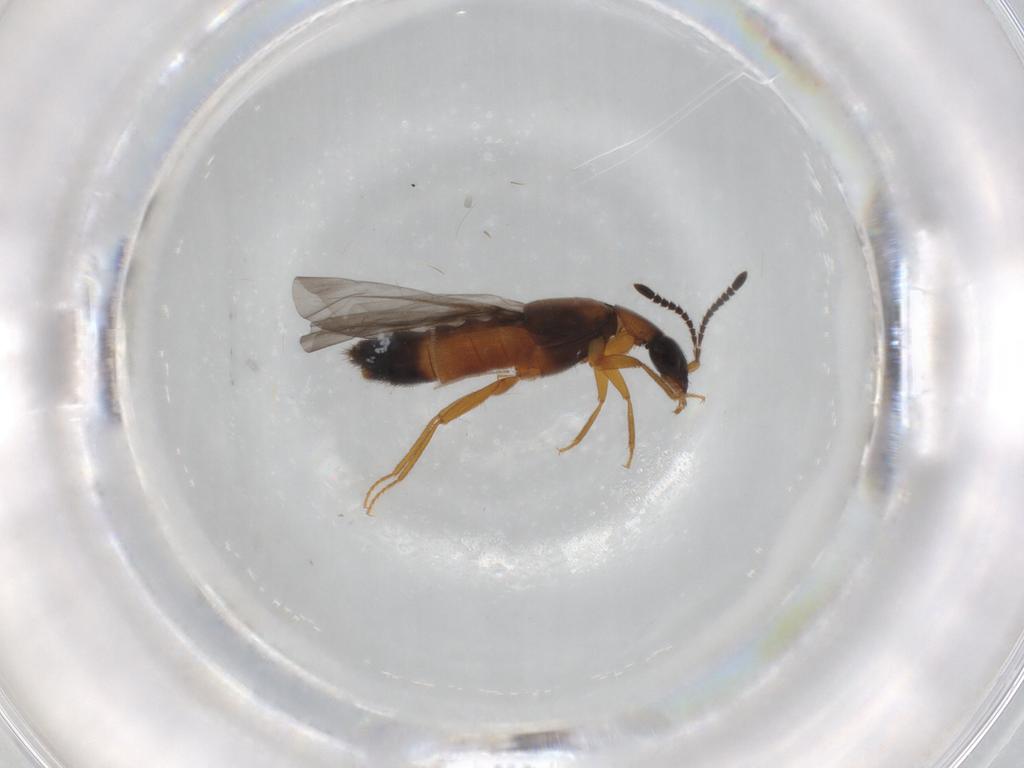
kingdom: Animalia
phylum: Arthropoda
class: Insecta
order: Coleoptera
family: Staphylinidae
